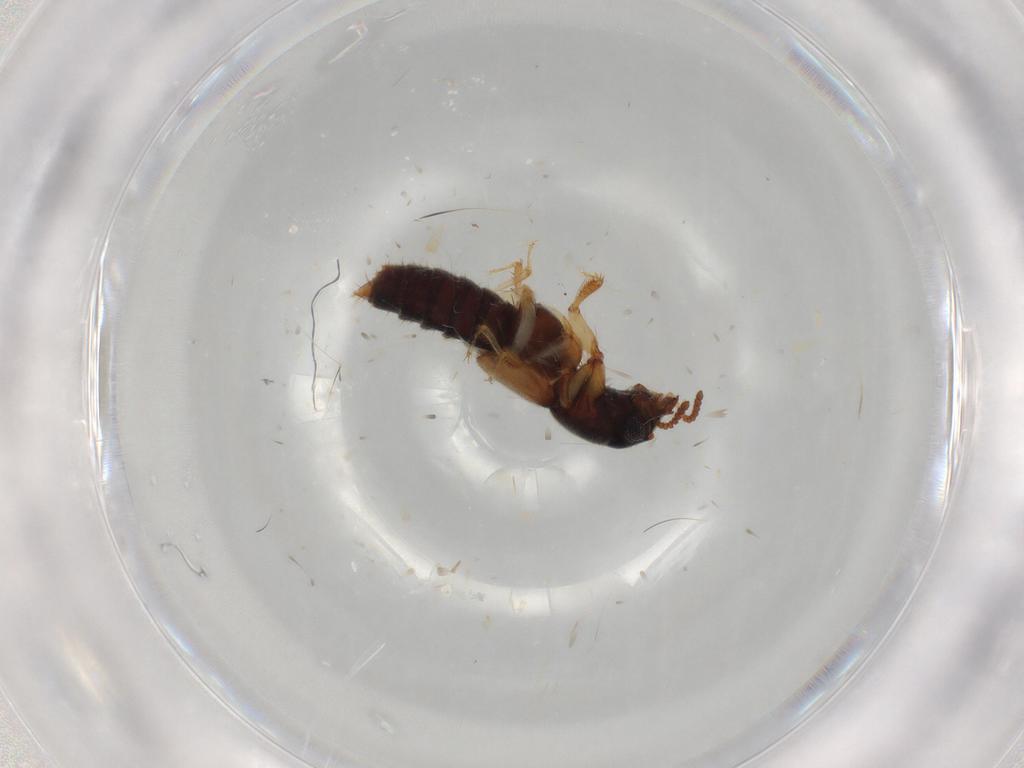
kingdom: Animalia
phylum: Arthropoda
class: Insecta
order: Coleoptera
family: Staphylinidae
